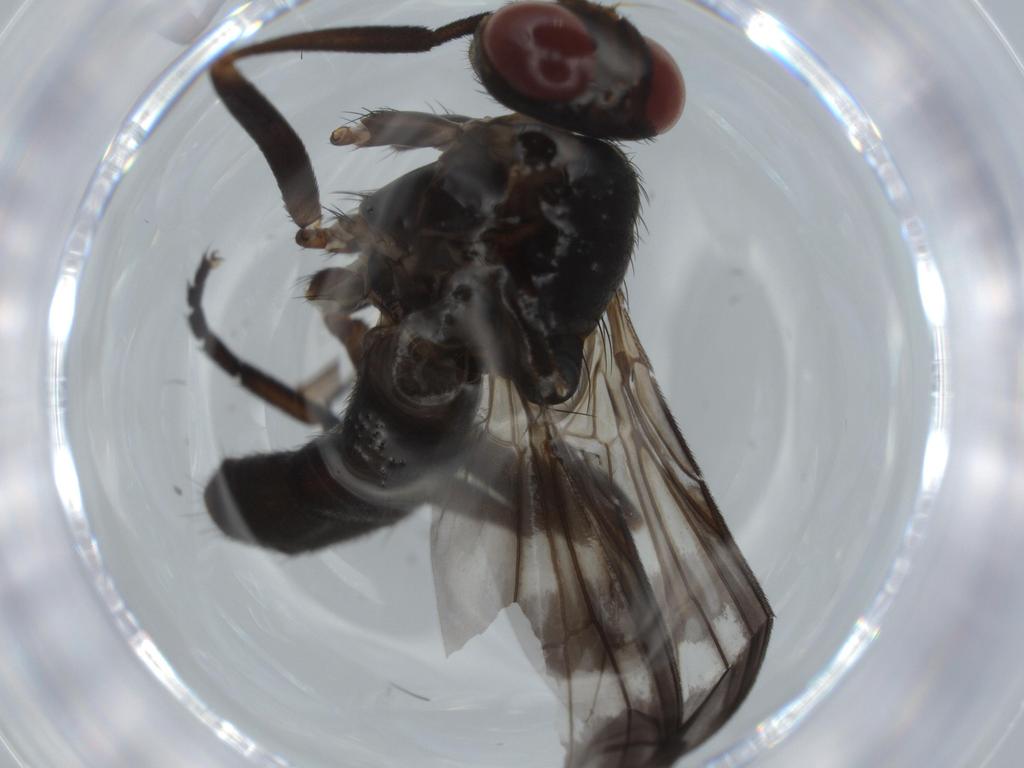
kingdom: Animalia
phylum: Arthropoda
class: Insecta
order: Diptera
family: Calliphoridae
